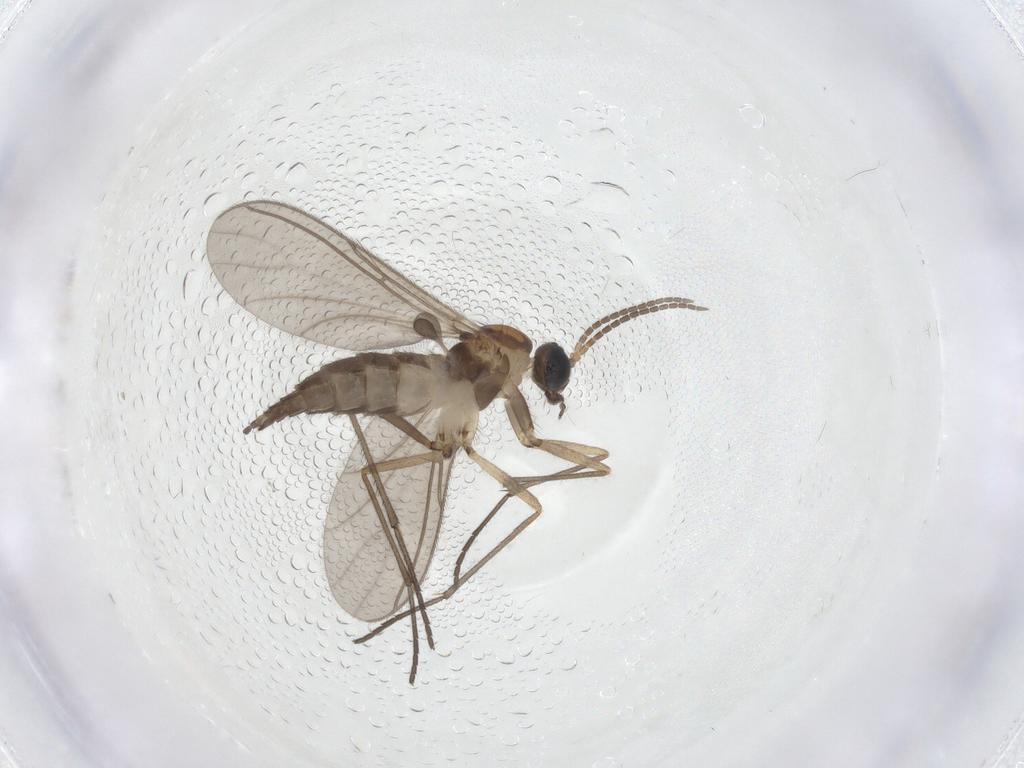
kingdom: Animalia
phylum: Arthropoda
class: Insecta
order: Diptera
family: Sciaridae
